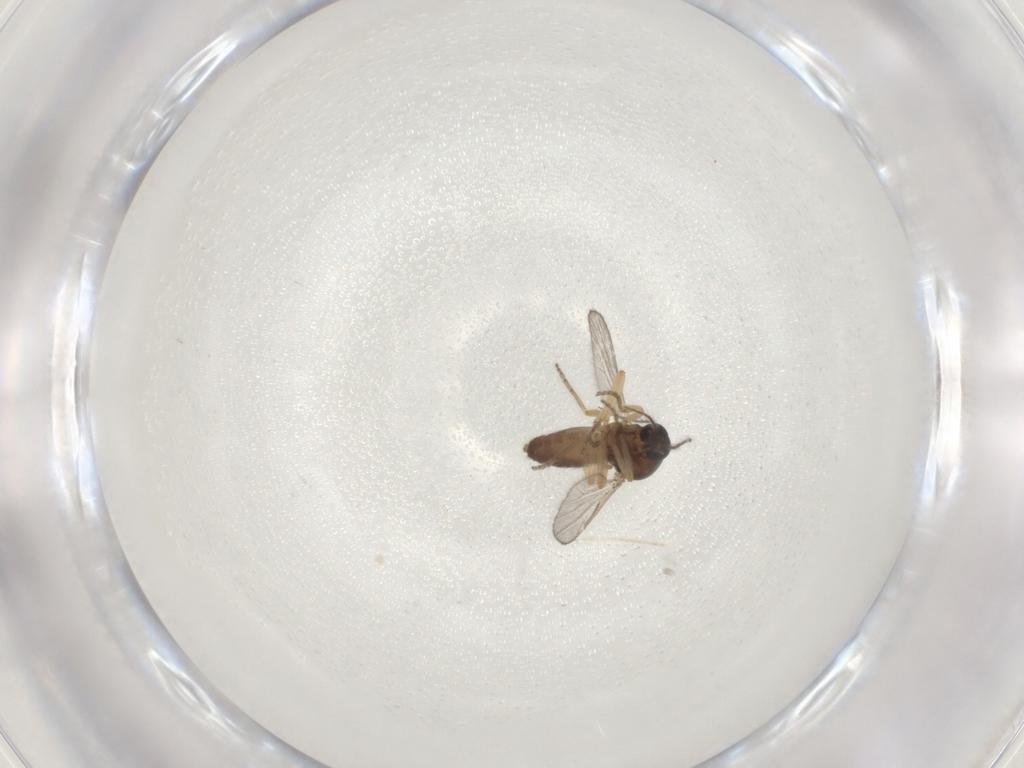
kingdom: Animalia
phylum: Arthropoda
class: Insecta
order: Diptera
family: Ceratopogonidae
